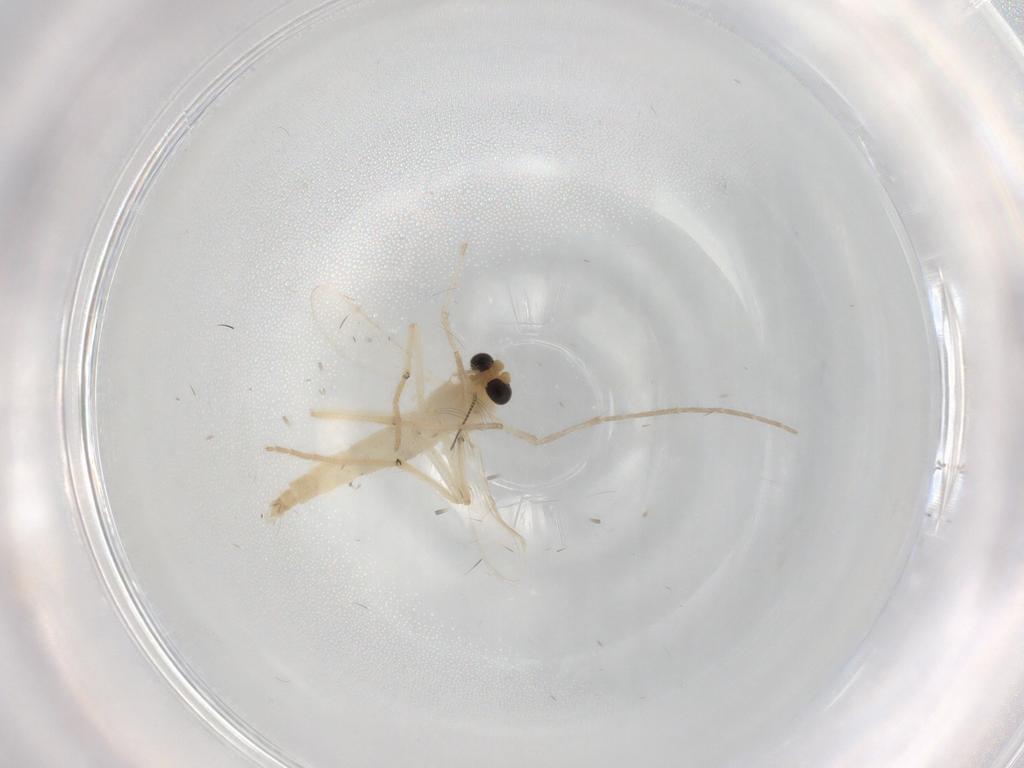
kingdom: Animalia
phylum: Arthropoda
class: Insecta
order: Diptera
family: Chironomidae
